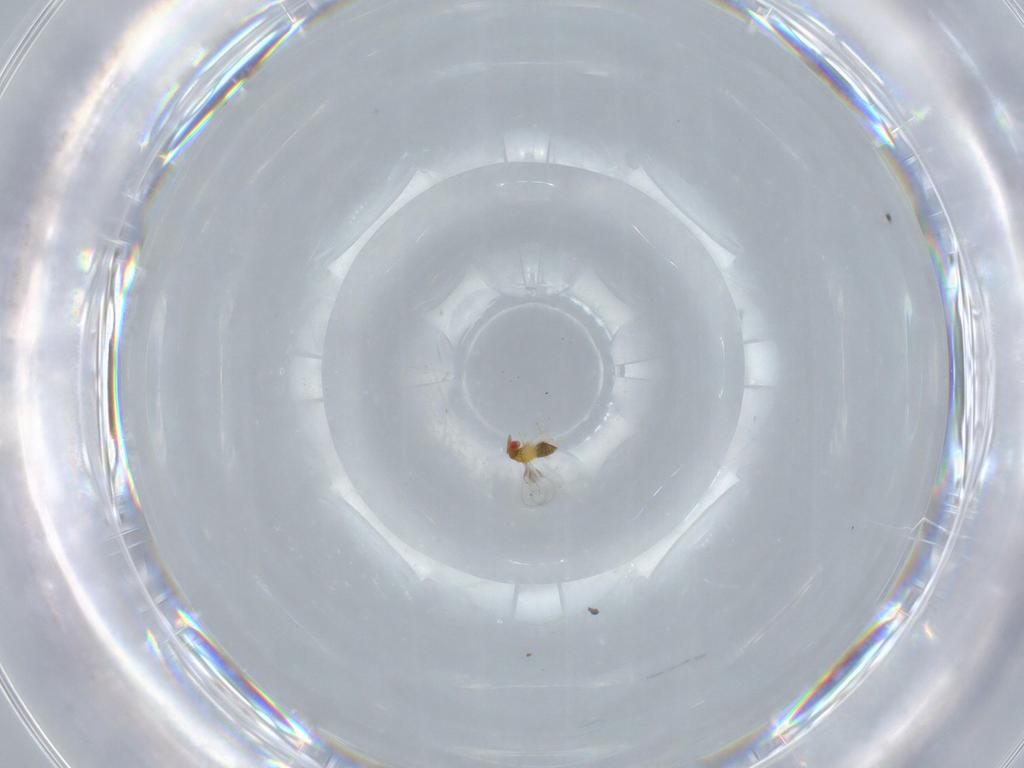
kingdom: Animalia
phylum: Arthropoda
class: Insecta
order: Hymenoptera
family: Trichogrammatidae
